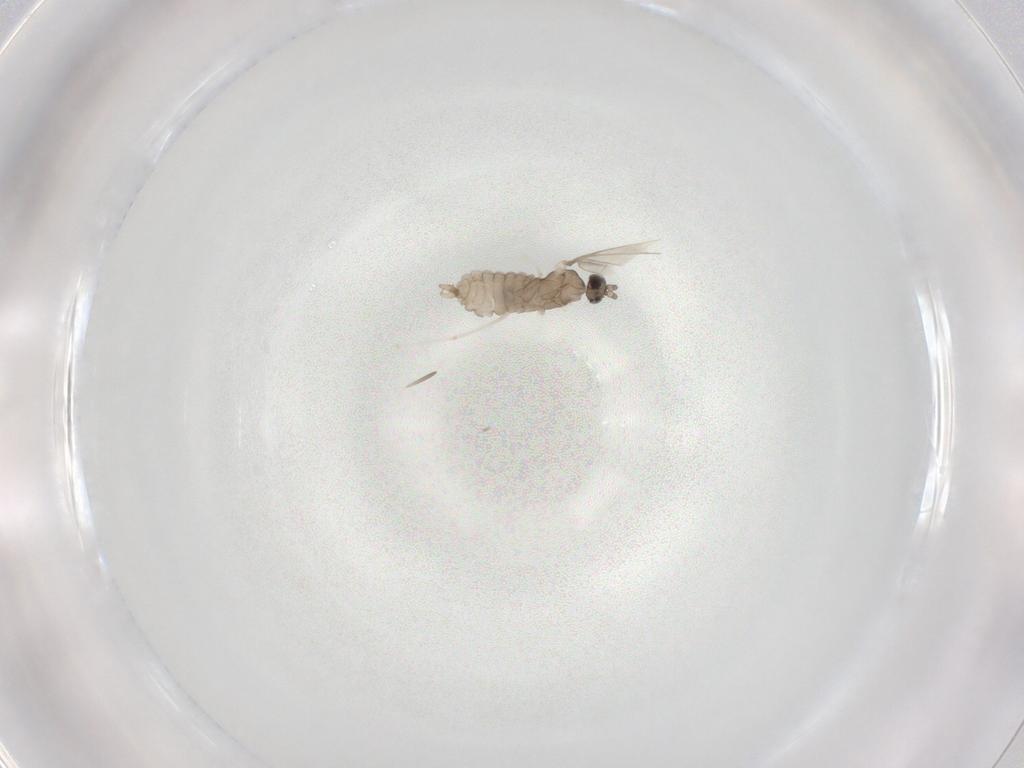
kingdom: Animalia
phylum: Arthropoda
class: Insecta
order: Diptera
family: Cecidomyiidae
